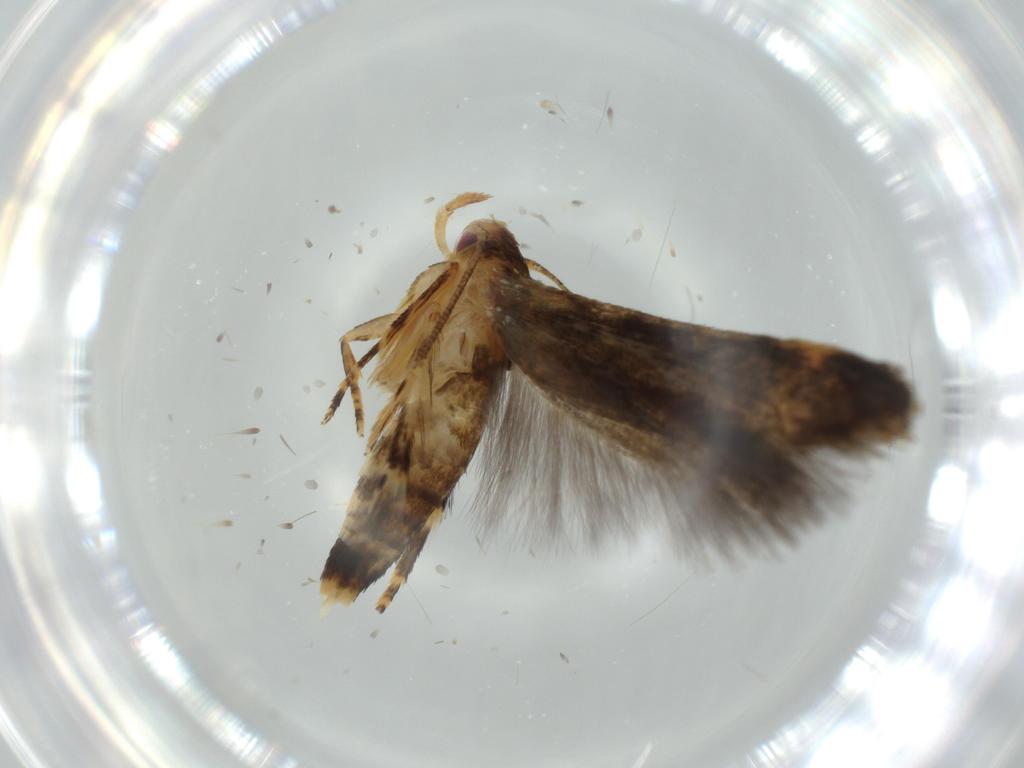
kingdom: Animalia
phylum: Arthropoda
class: Insecta
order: Lepidoptera
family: Momphidae
